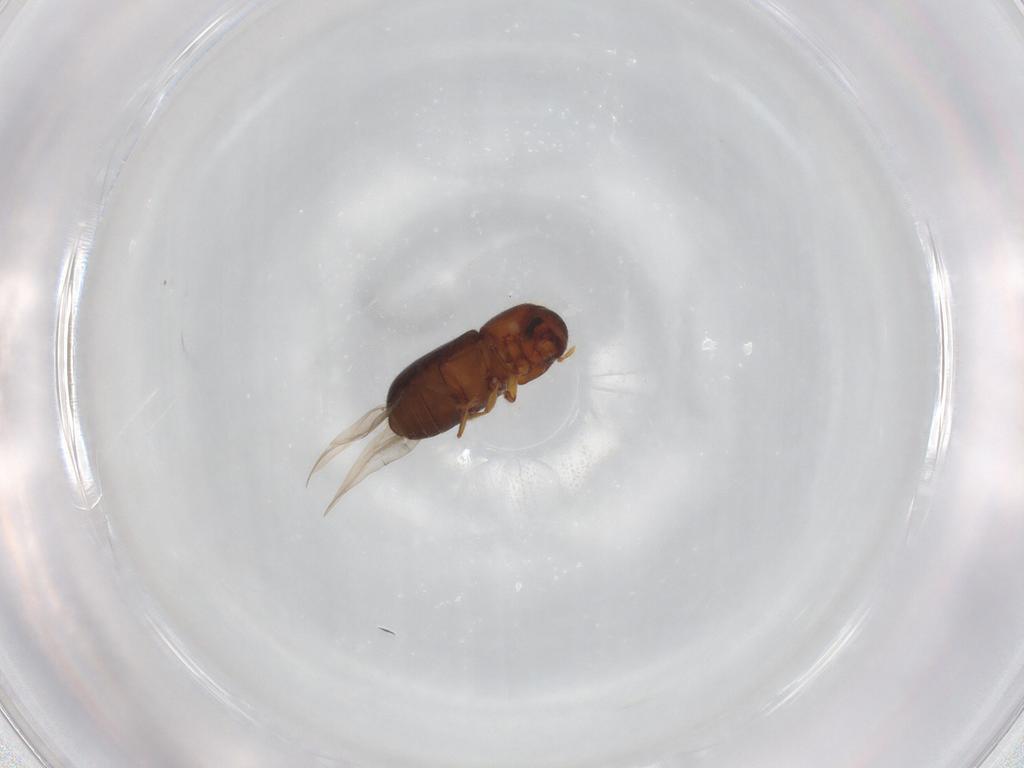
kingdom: Animalia
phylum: Arthropoda
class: Insecta
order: Coleoptera
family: Curculionidae
